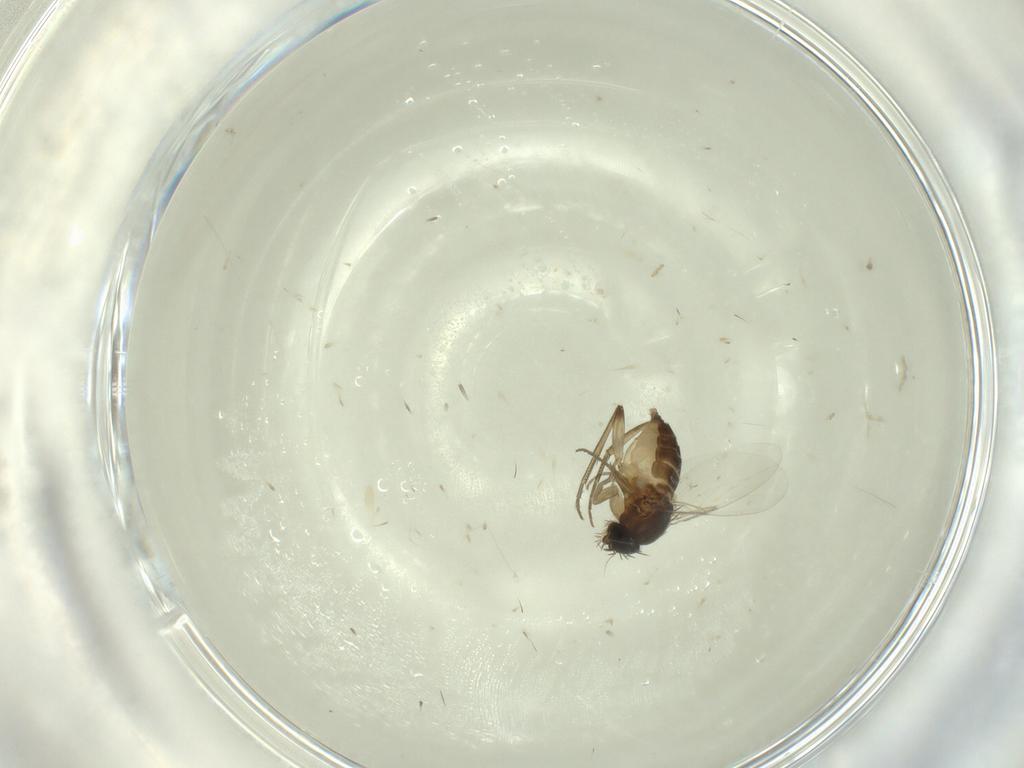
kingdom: Animalia
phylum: Arthropoda
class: Insecta
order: Diptera
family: Phoridae
